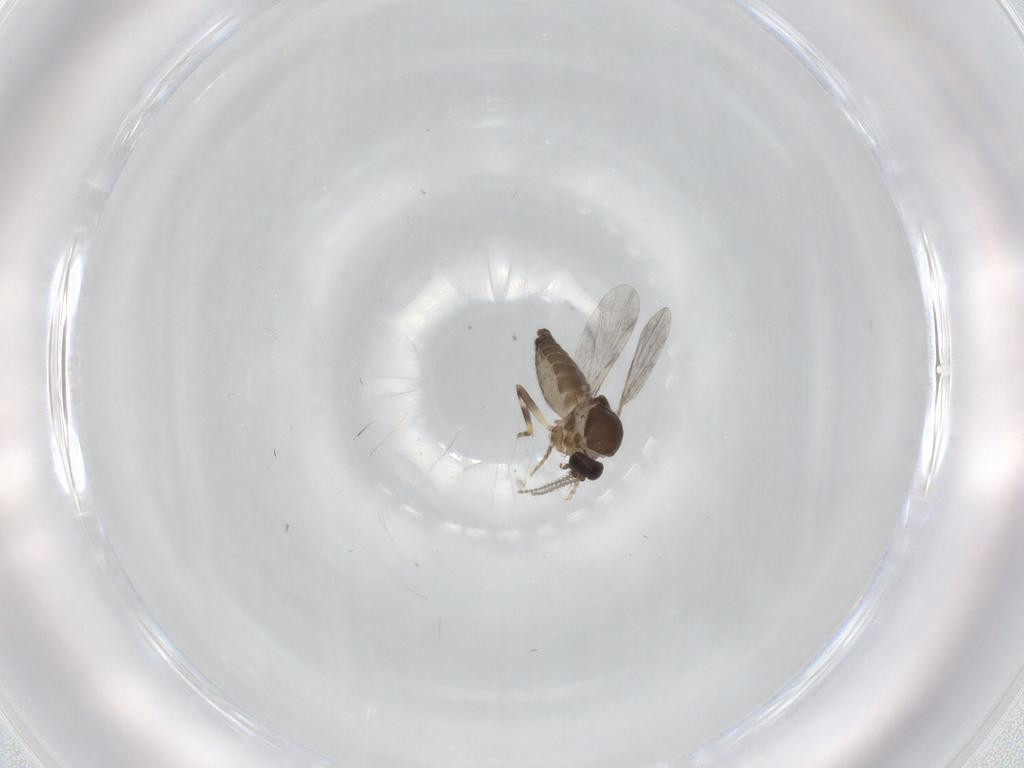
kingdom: Animalia
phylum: Arthropoda
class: Insecta
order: Diptera
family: Ceratopogonidae
